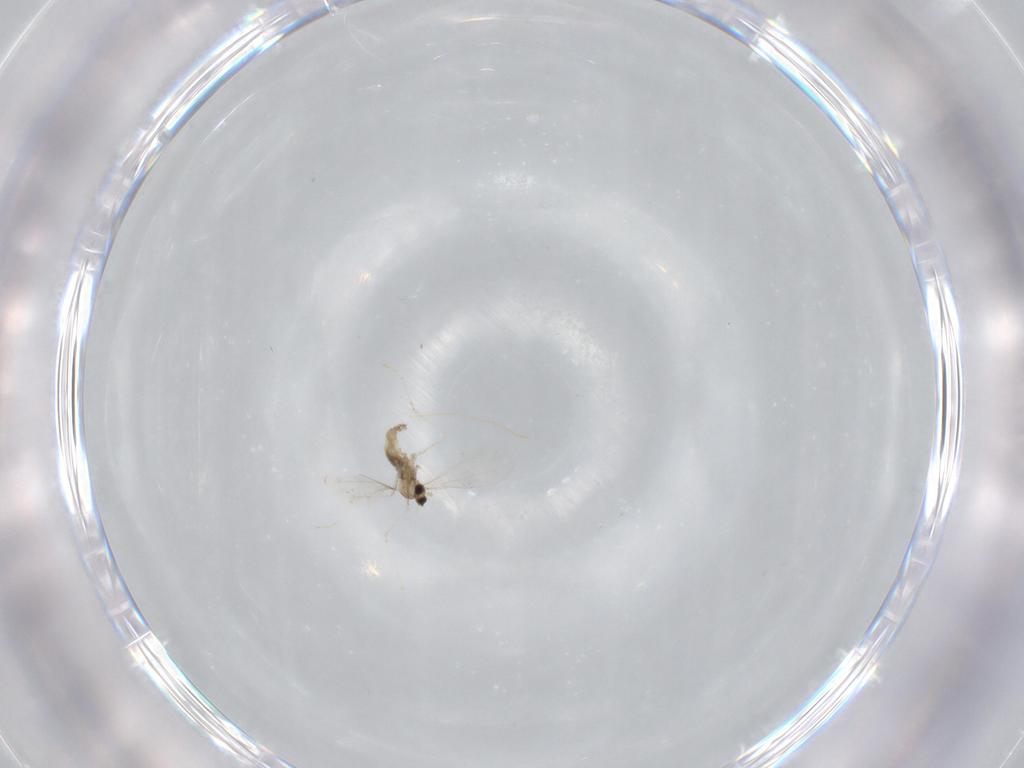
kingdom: Animalia
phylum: Arthropoda
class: Insecta
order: Diptera
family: Cecidomyiidae
